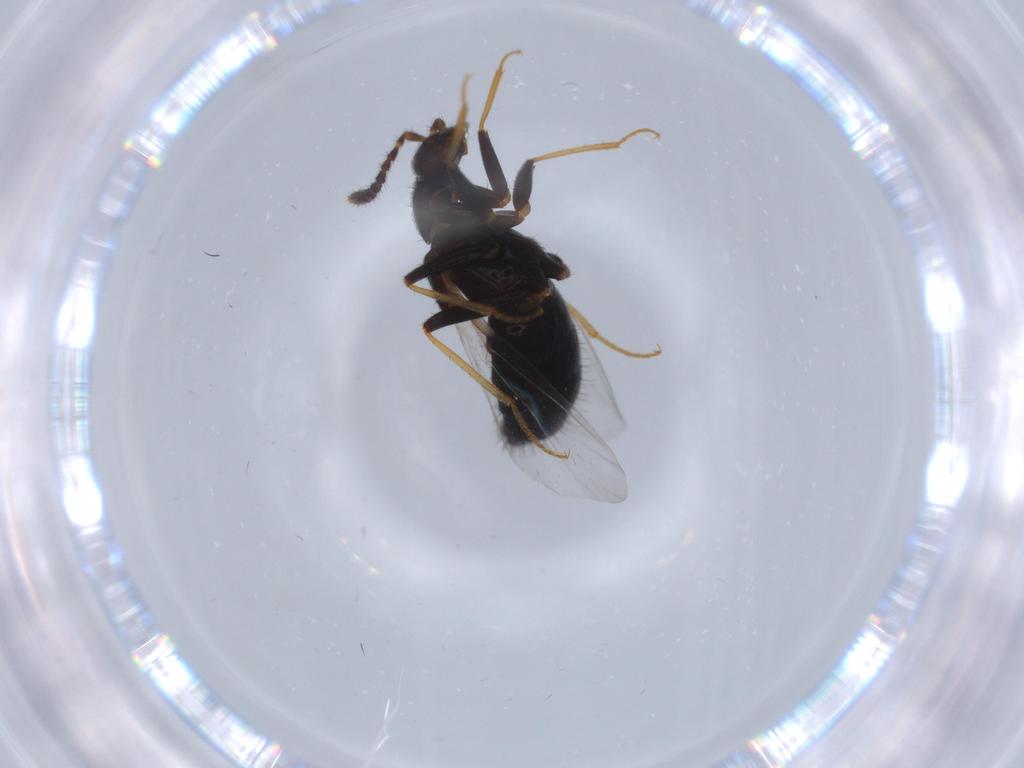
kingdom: Animalia
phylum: Arthropoda
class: Insecta
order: Coleoptera
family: Staphylinidae
